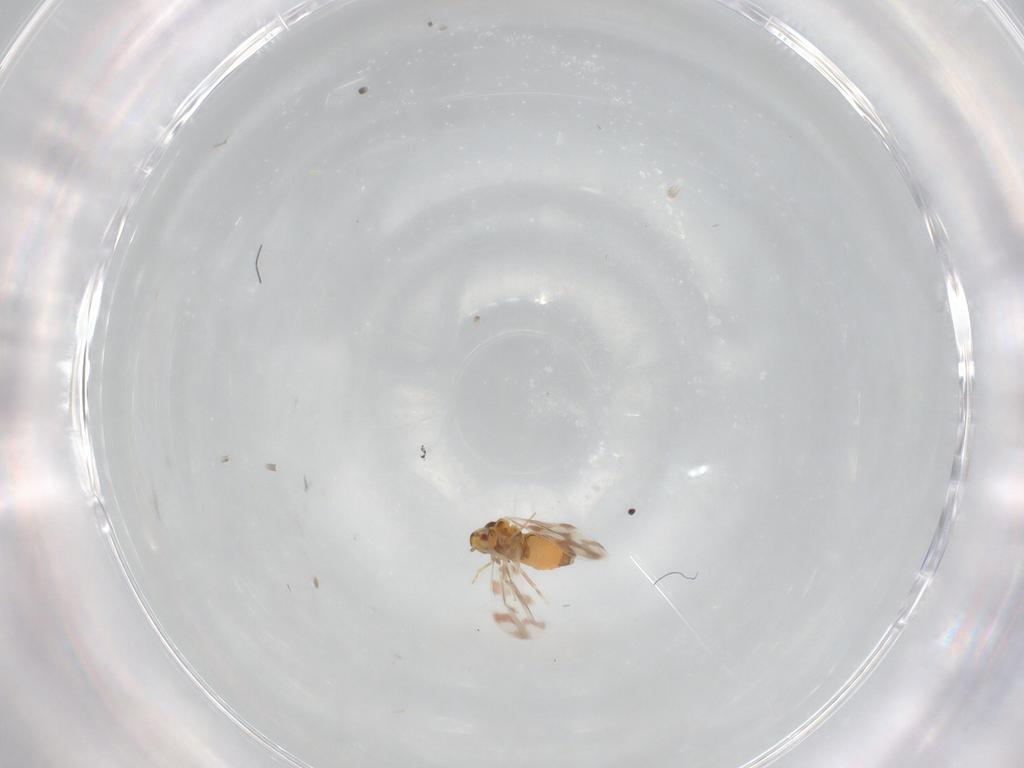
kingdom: Animalia
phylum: Arthropoda
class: Insecta
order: Hemiptera
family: Aleyrodidae
